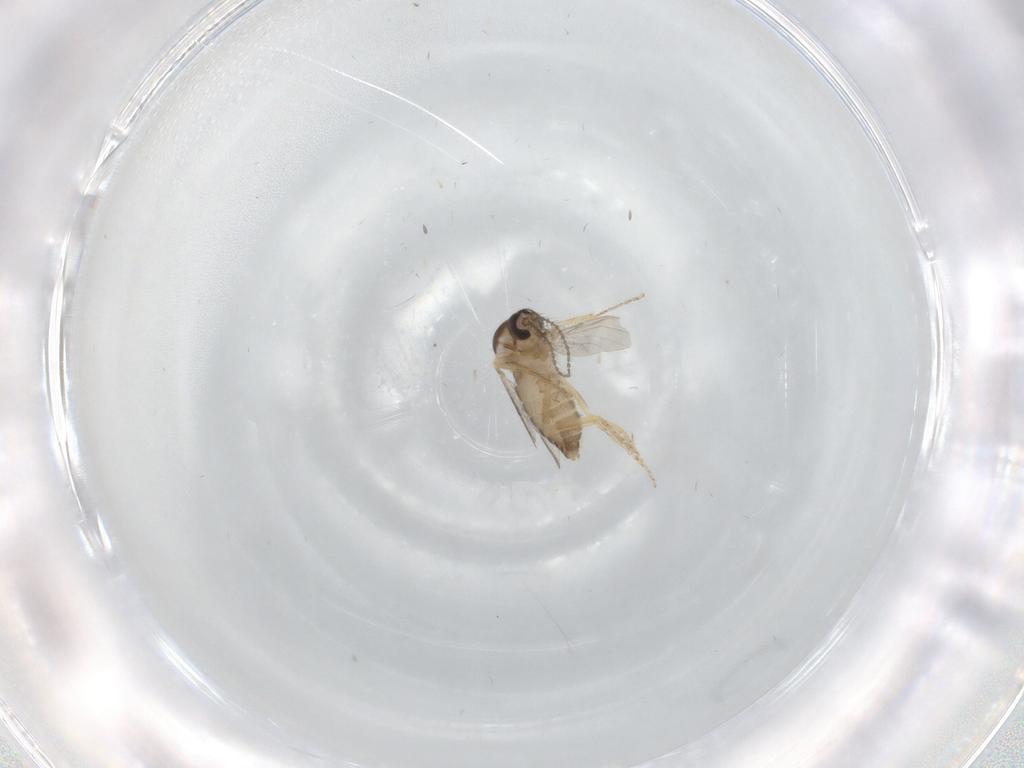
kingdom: Animalia
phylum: Arthropoda
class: Insecta
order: Diptera
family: Ceratopogonidae
